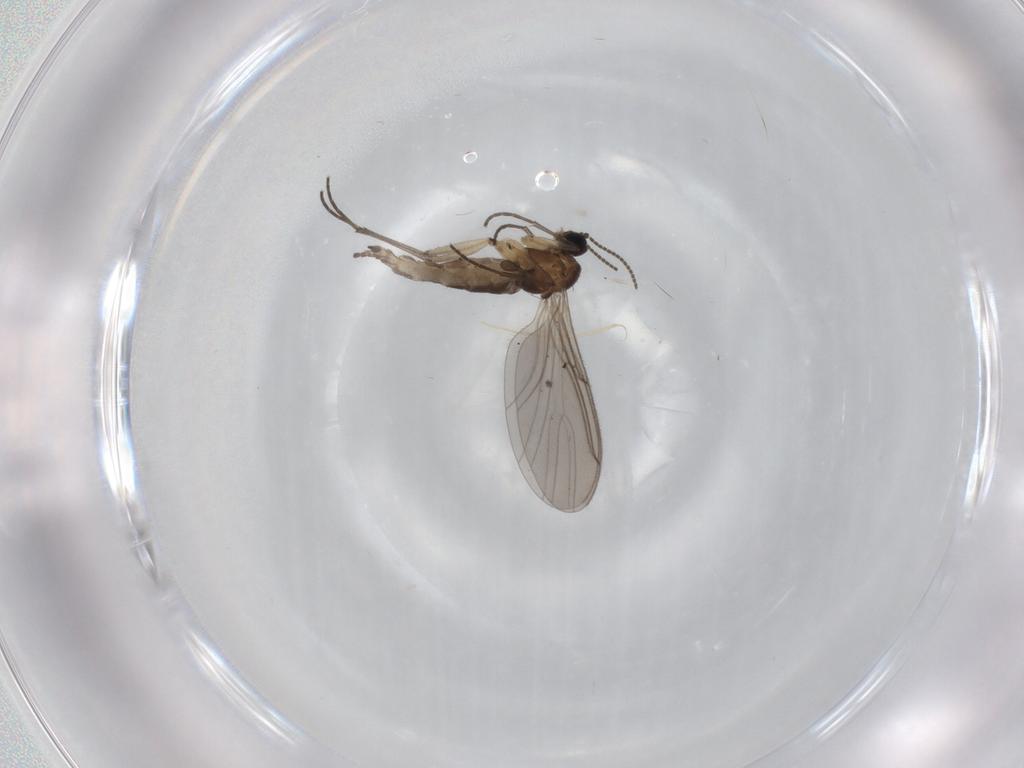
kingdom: Animalia
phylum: Arthropoda
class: Insecta
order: Diptera
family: Sciaridae
